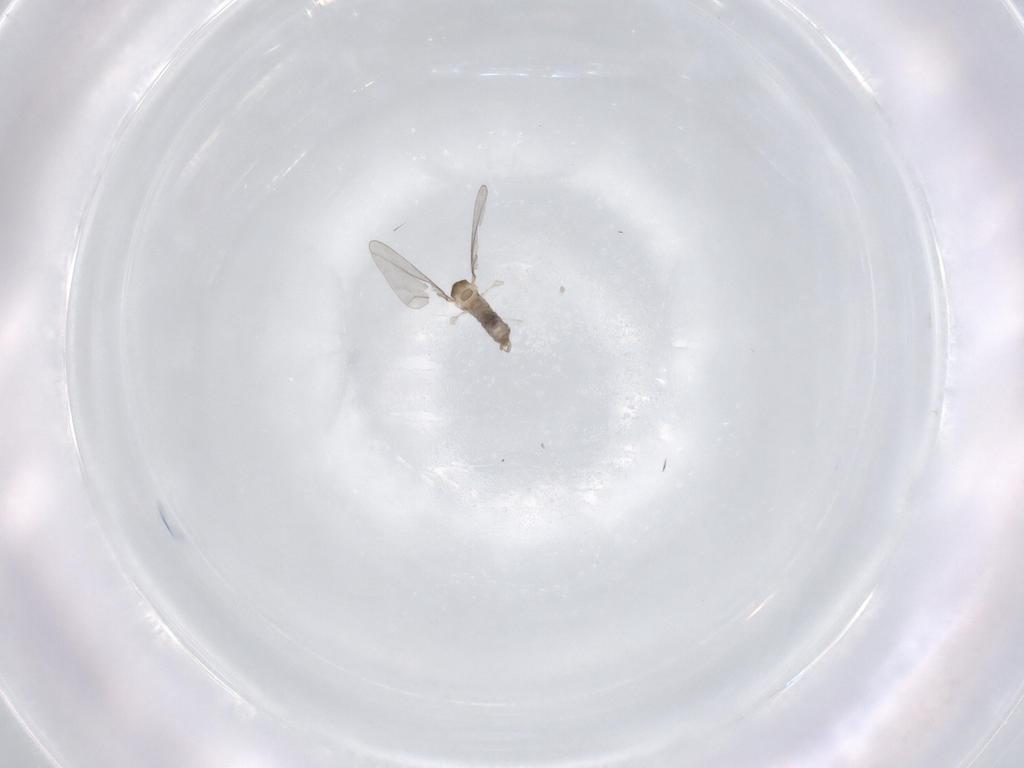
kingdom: Animalia
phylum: Arthropoda
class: Insecta
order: Diptera
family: Cecidomyiidae
